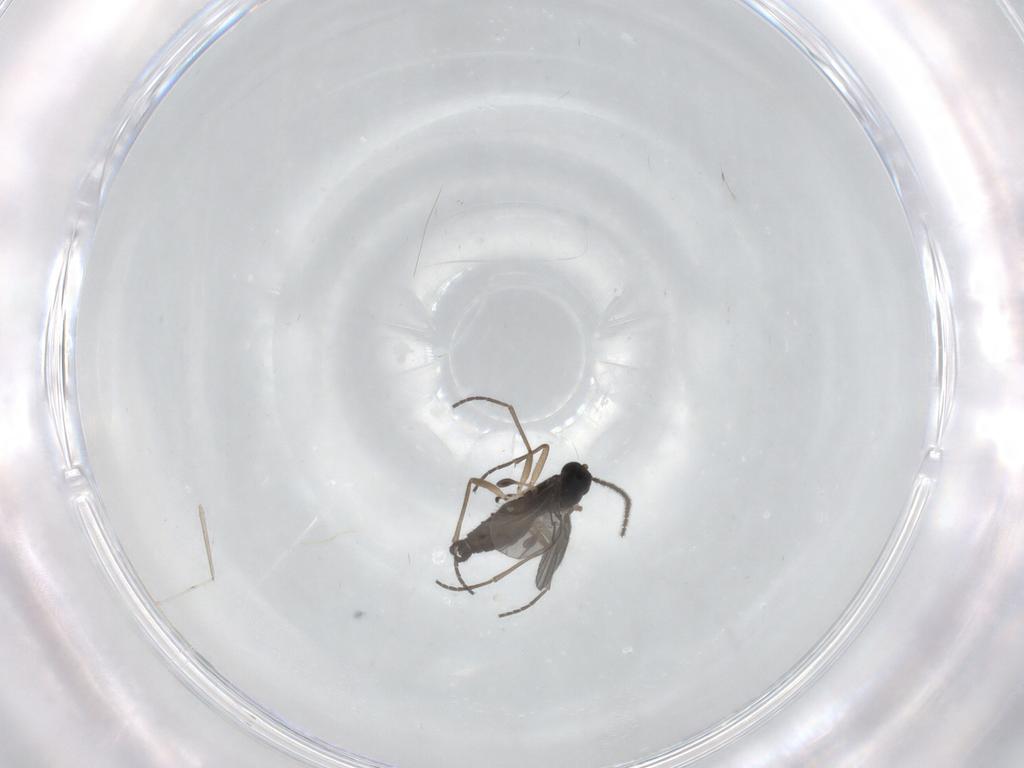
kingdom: Animalia
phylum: Arthropoda
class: Insecta
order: Diptera
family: Sciaridae
